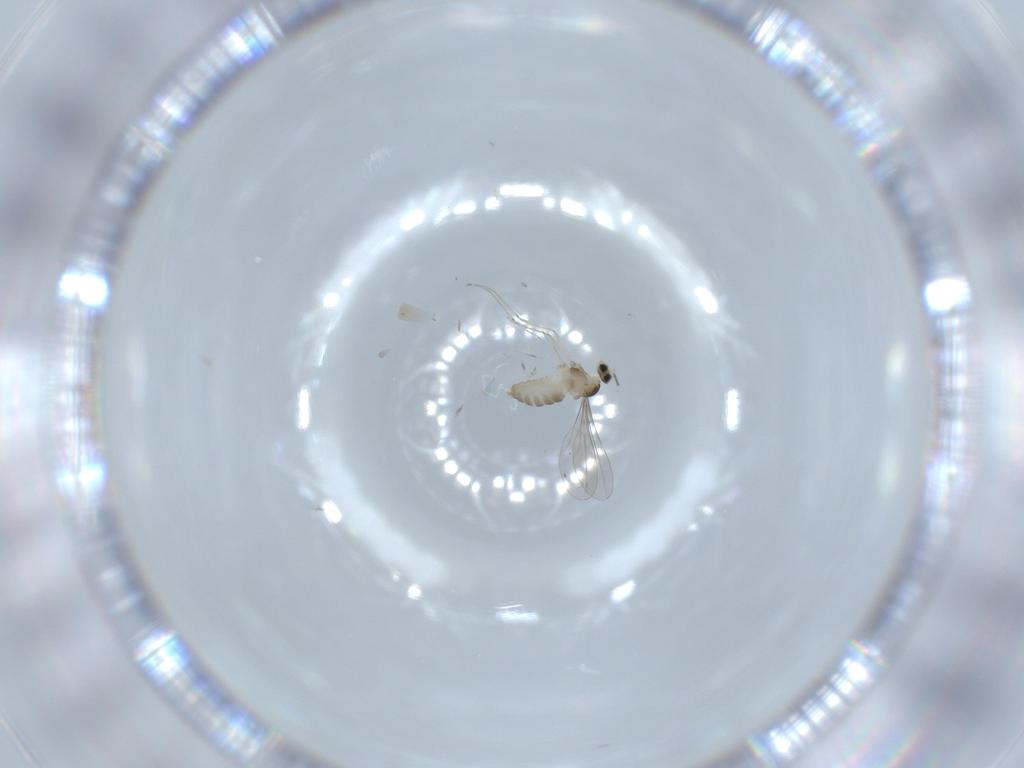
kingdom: Animalia
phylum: Arthropoda
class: Insecta
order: Diptera
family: Cecidomyiidae
